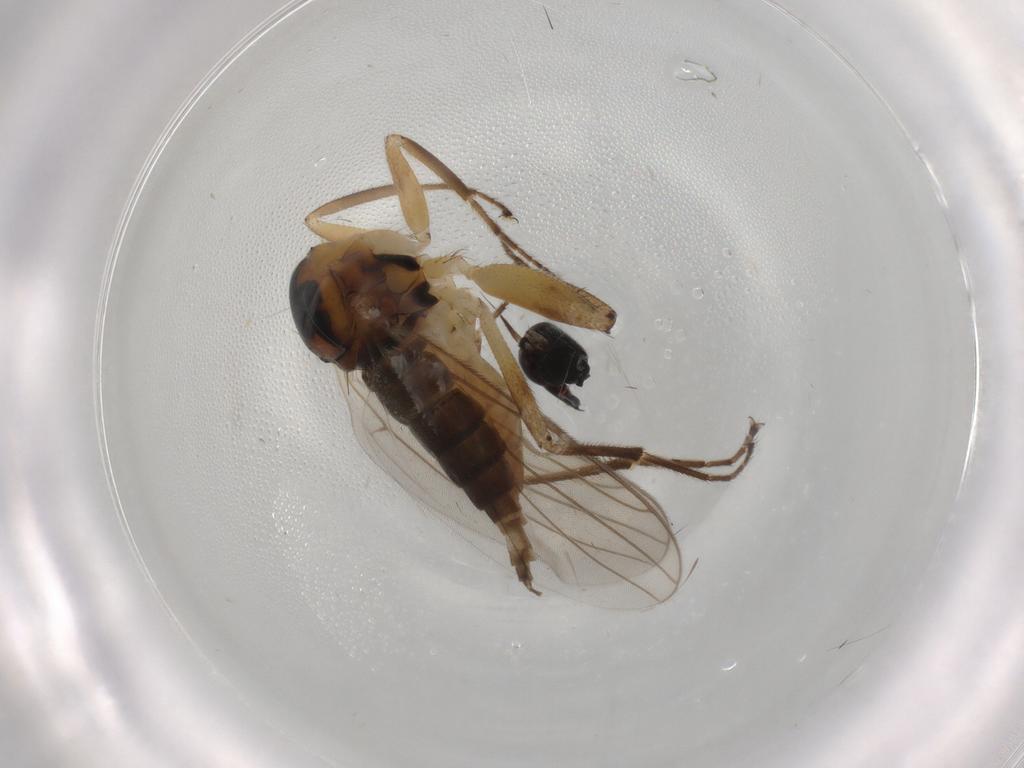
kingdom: Animalia
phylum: Arthropoda
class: Insecta
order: Diptera
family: Hybotidae
